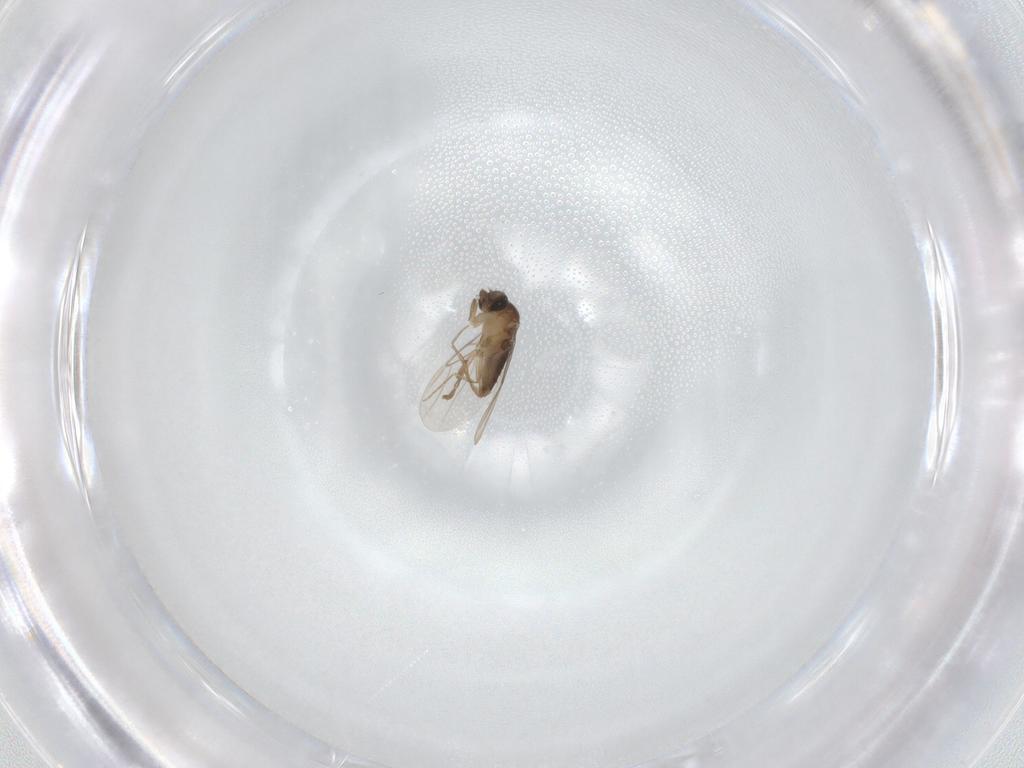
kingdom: Animalia
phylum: Arthropoda
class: Insecta
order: Diptera
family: Phoridae
